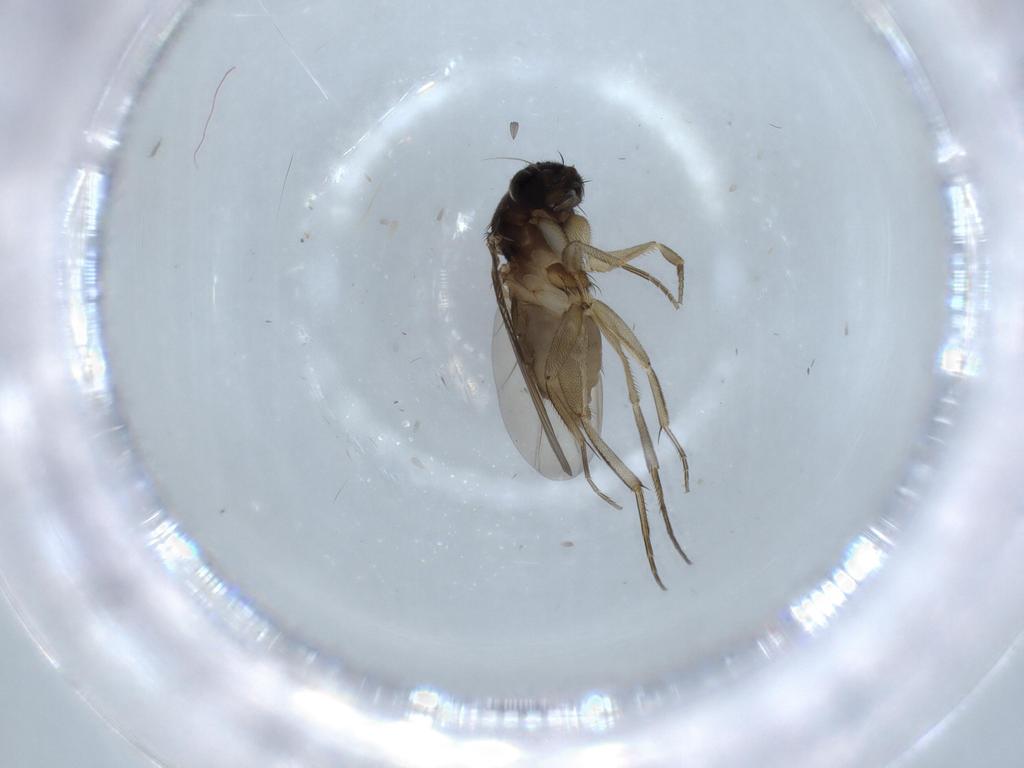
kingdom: Animalia
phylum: Arthropoda
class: Insecta
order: Diptera
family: Phoridae
